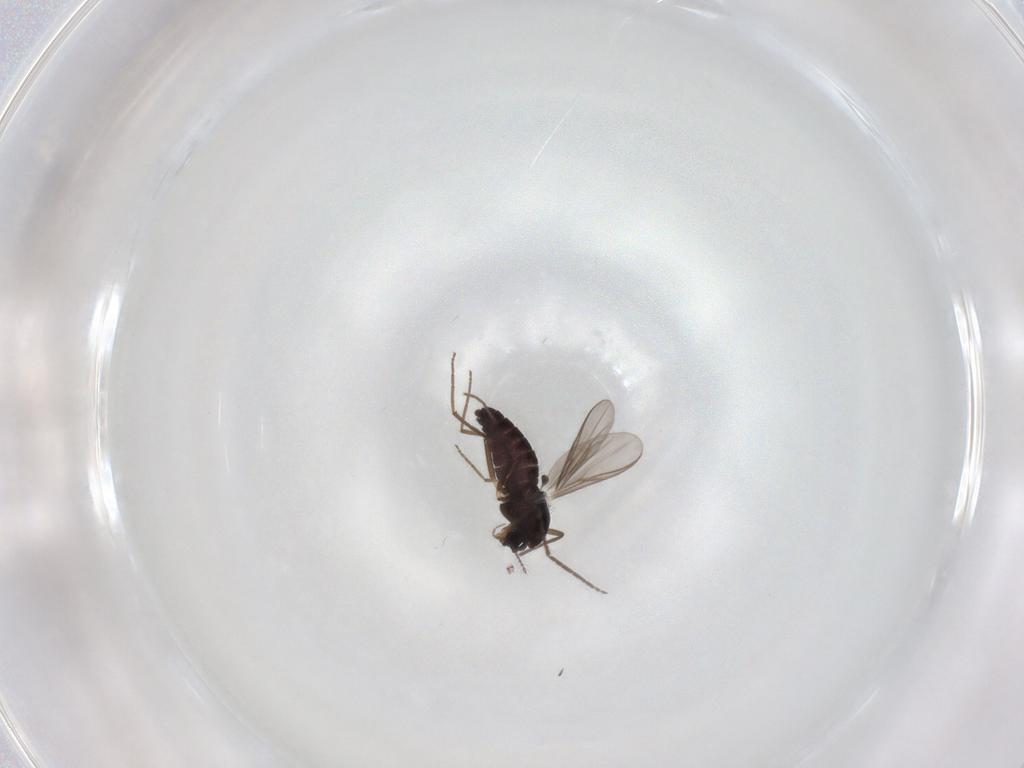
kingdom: Animalia
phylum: Arthropoda
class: Insecta
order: Diptera
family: Chironomidae
